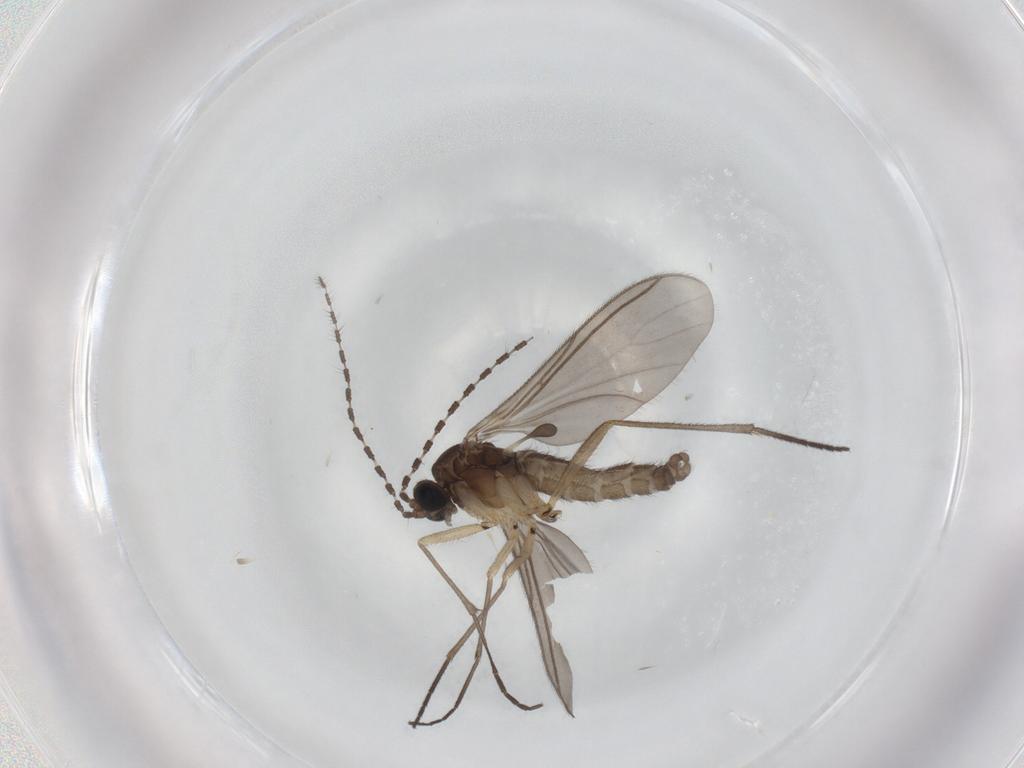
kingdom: Animalia
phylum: Arthropoda
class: Insecta
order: Diptera
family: Sciaridae
